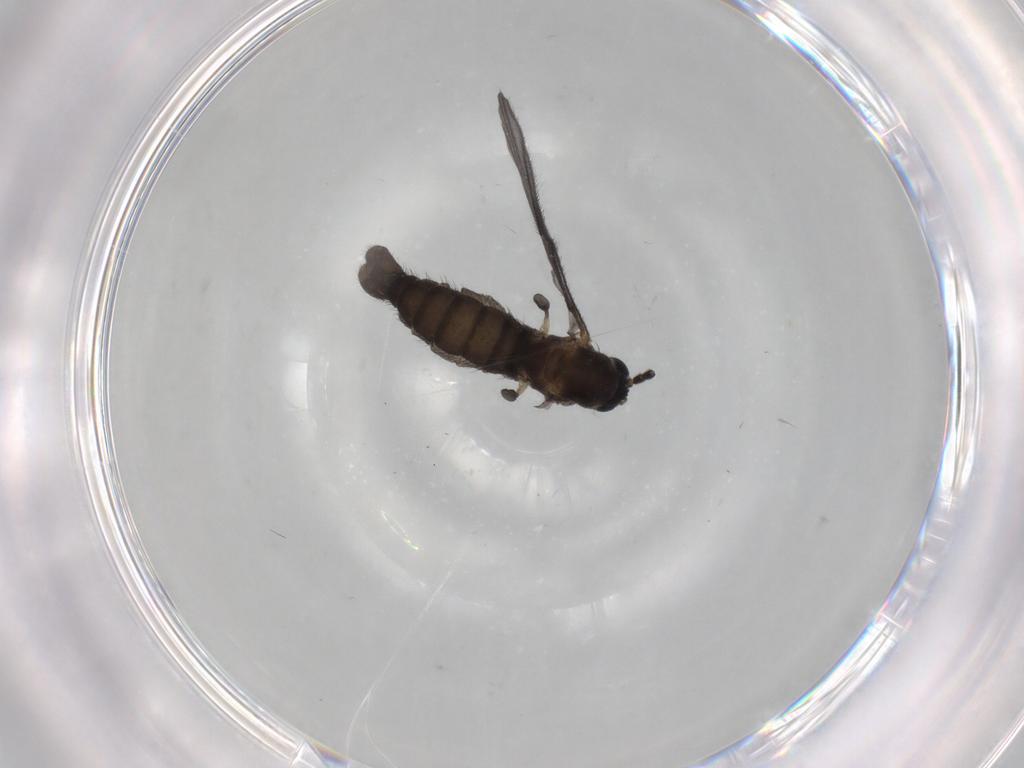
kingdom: Animalia
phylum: Arthropoda
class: Insecta
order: Diptera
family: Sciaridae
